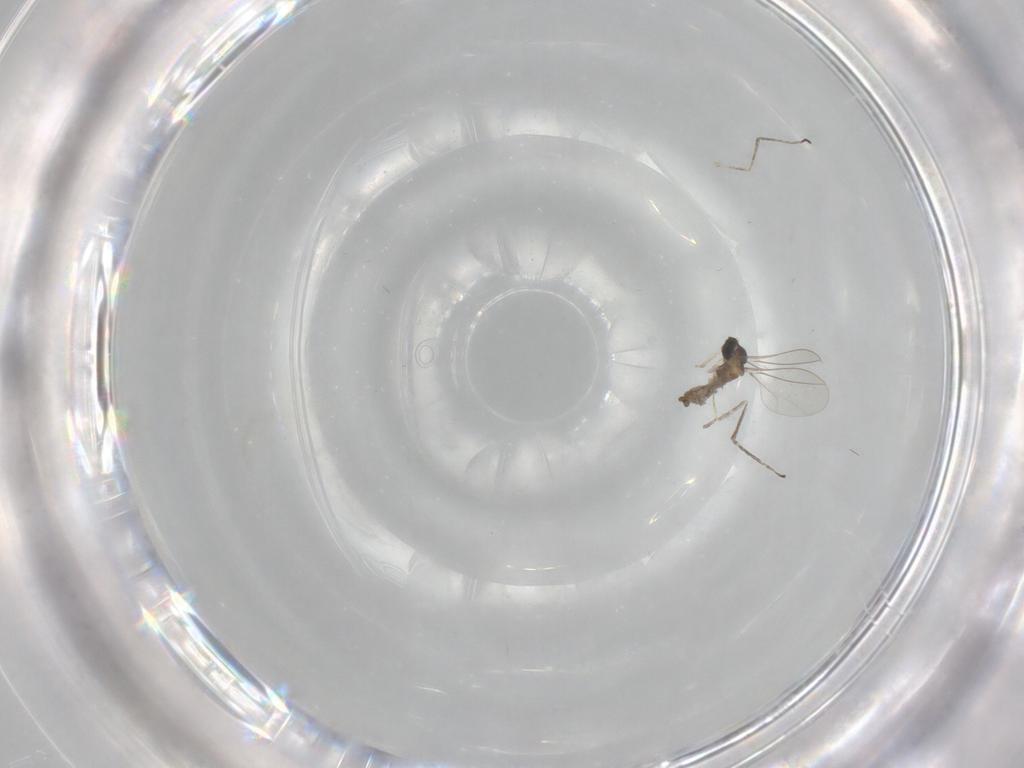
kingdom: Animalia
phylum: Arthropoda
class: Insecta
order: Diptera
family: Cecidomyiidae
